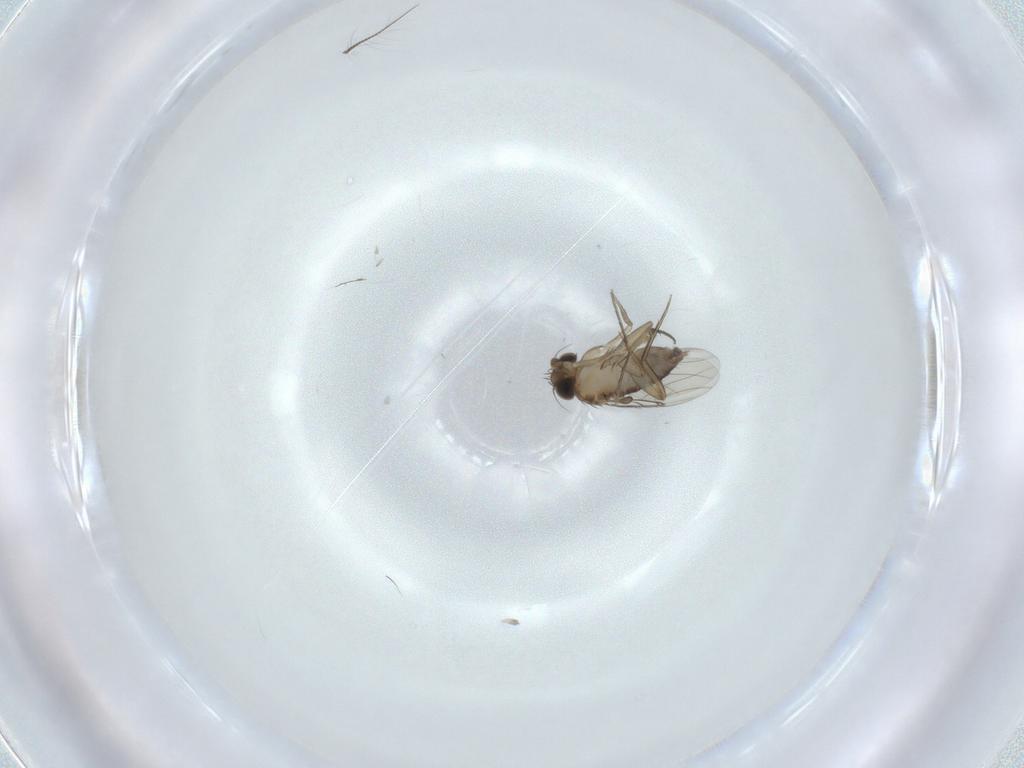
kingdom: Animalia
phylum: Arthropoda
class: Insecta
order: Diptera
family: Phoridae
